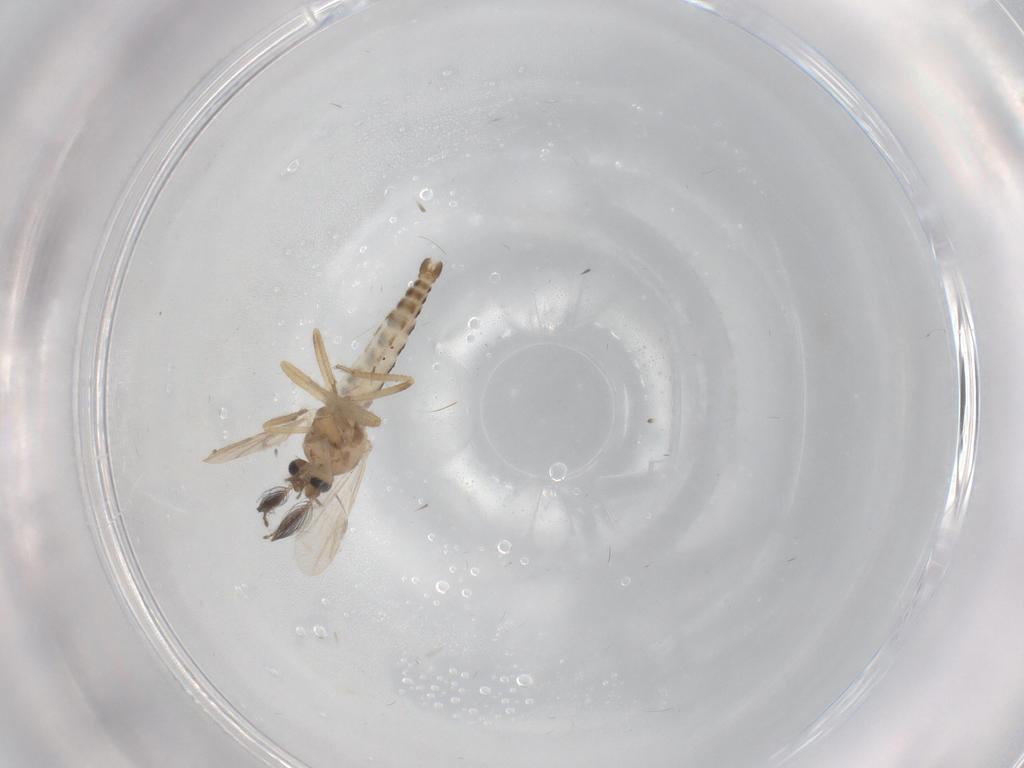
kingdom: Animalia
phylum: Arthropoda
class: Insecta
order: Diptera
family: Ceratopogonidae
